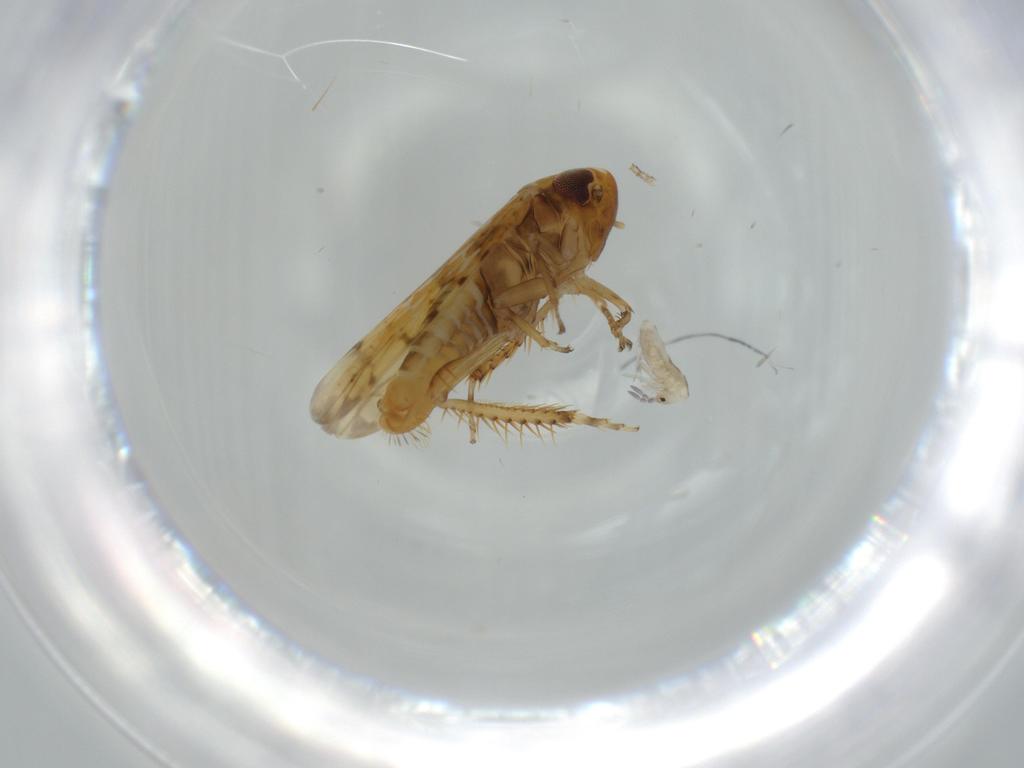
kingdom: Animalia
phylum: Arthropoda
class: Insecta
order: Hemiptera
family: Cicadellidae
